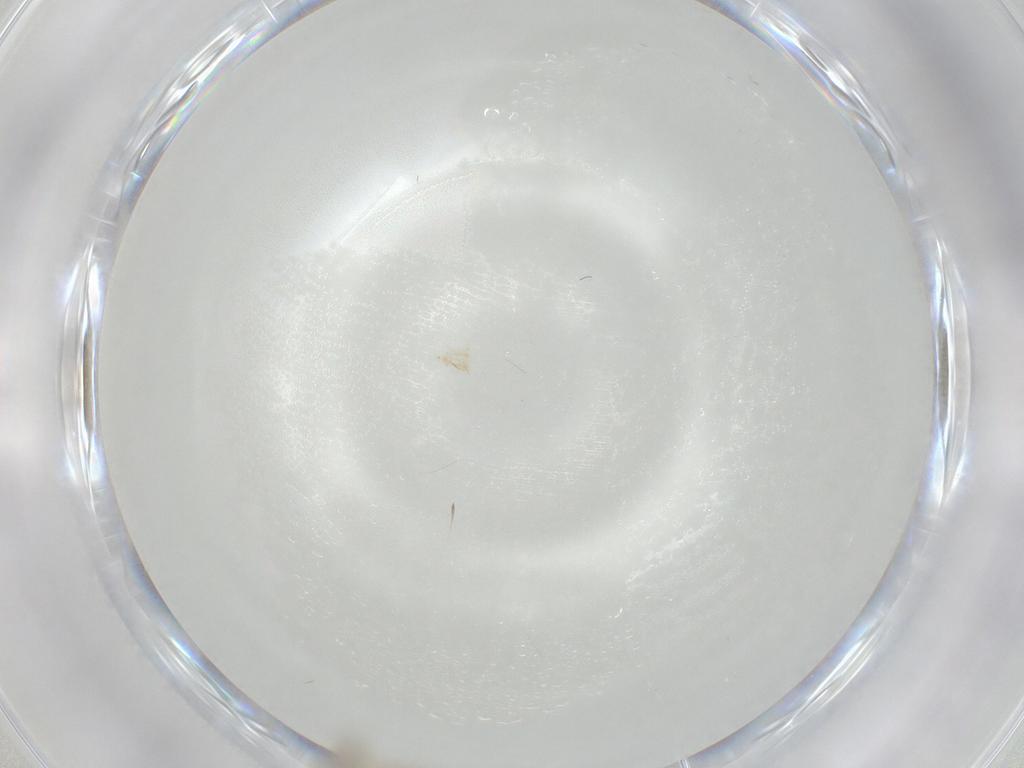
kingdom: Animalia
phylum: Arthropoda
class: Insecta
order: Diptera
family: Cecidomyiidae
